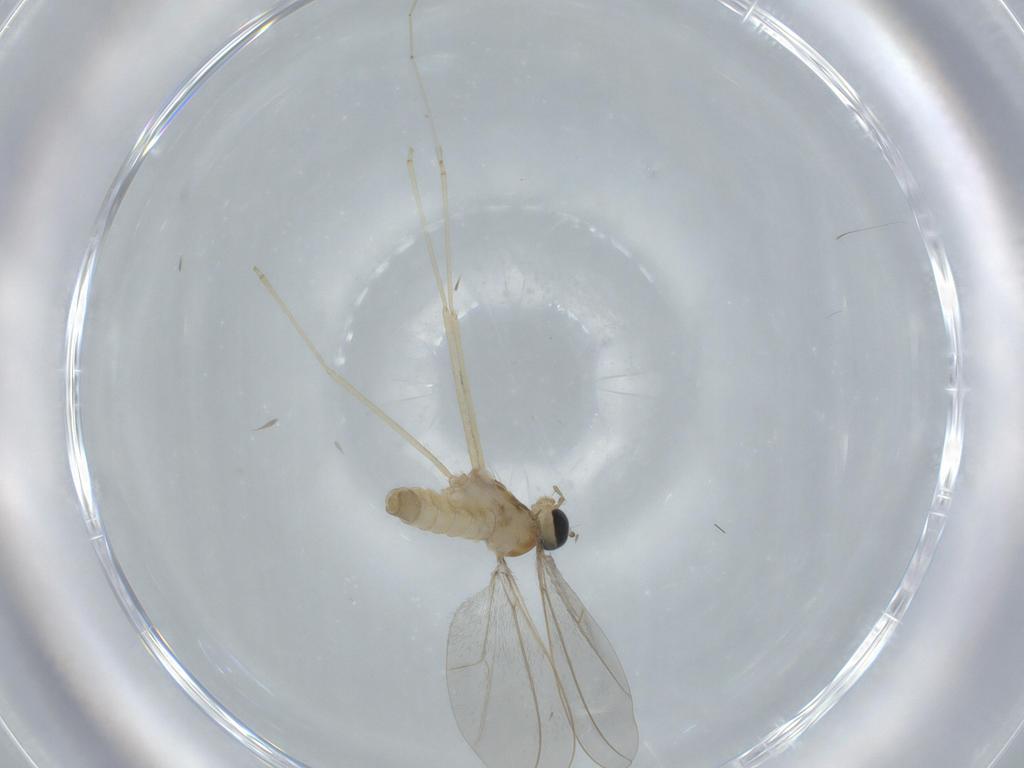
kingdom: Animalia
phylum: Arthropoda
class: Insecta
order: Diptera
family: Cecidomyiidae
